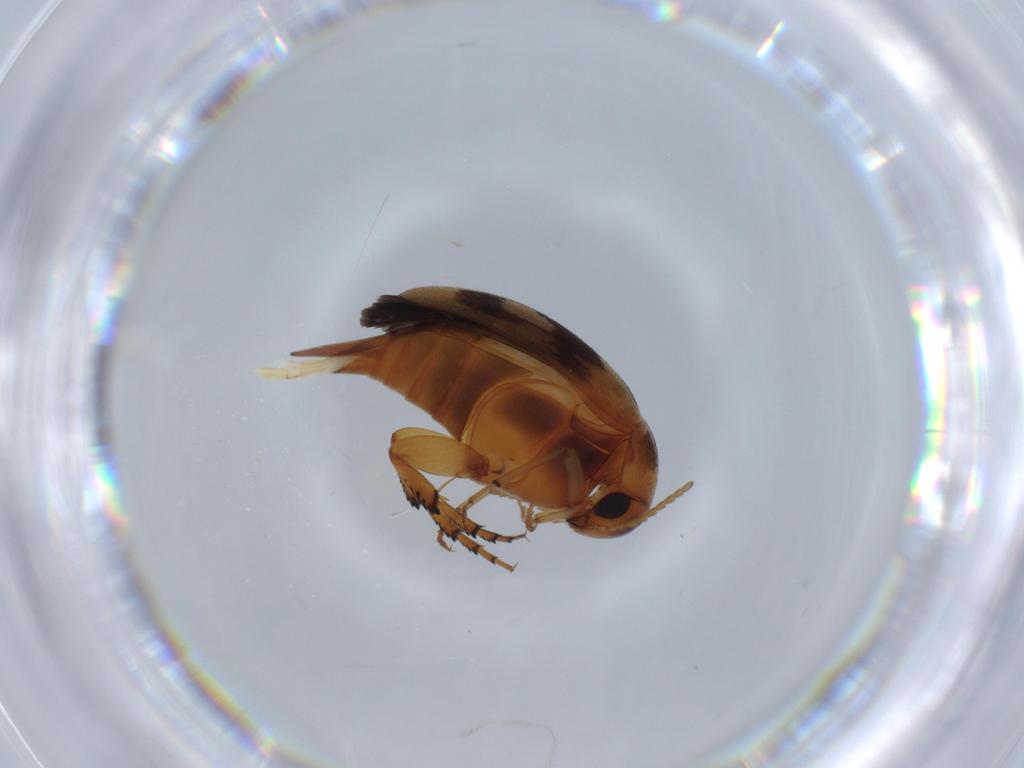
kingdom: Animalia
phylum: Arthropoda
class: Insecta
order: Coleoptera
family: Mordellidae
